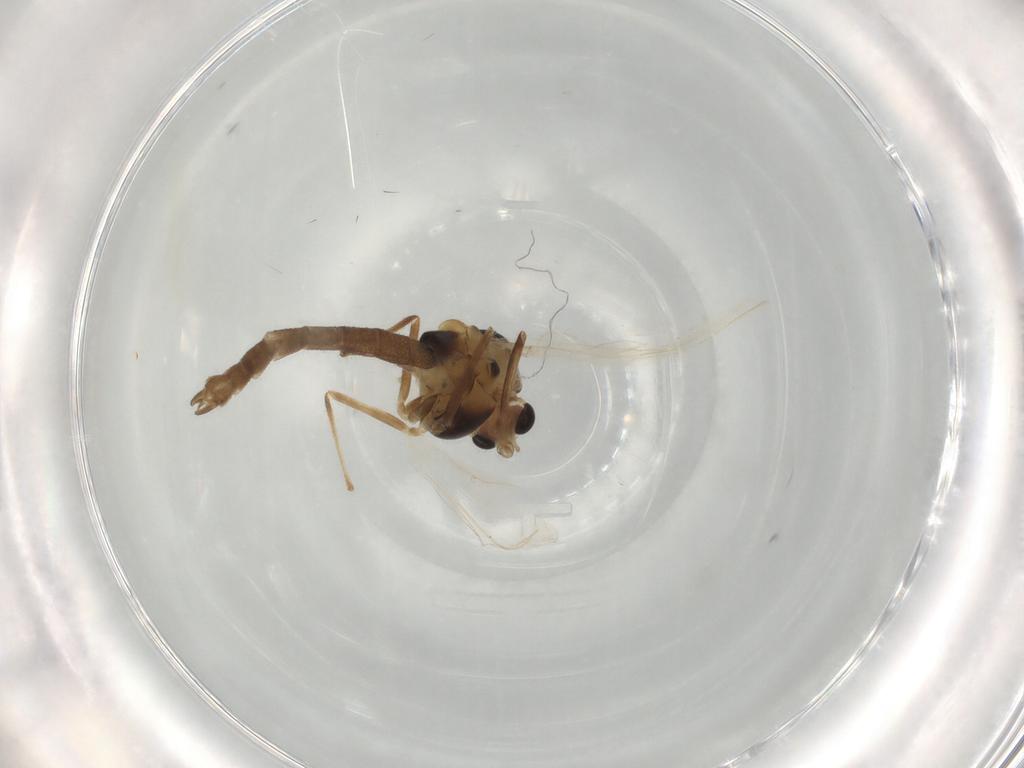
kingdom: Animalia
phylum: Arthropoda
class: Insecta
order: Diptera
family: Chironomidae
